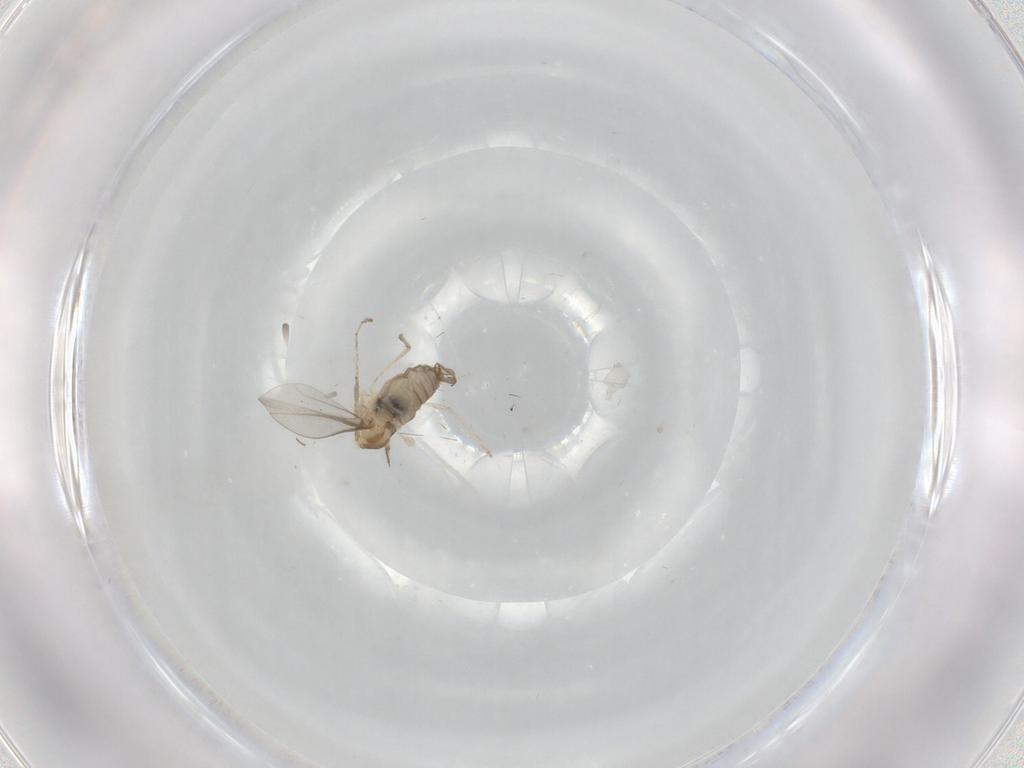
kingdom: Animalia
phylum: Arthropoda
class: Insecta
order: Diptera
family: Cecidomyiidae
